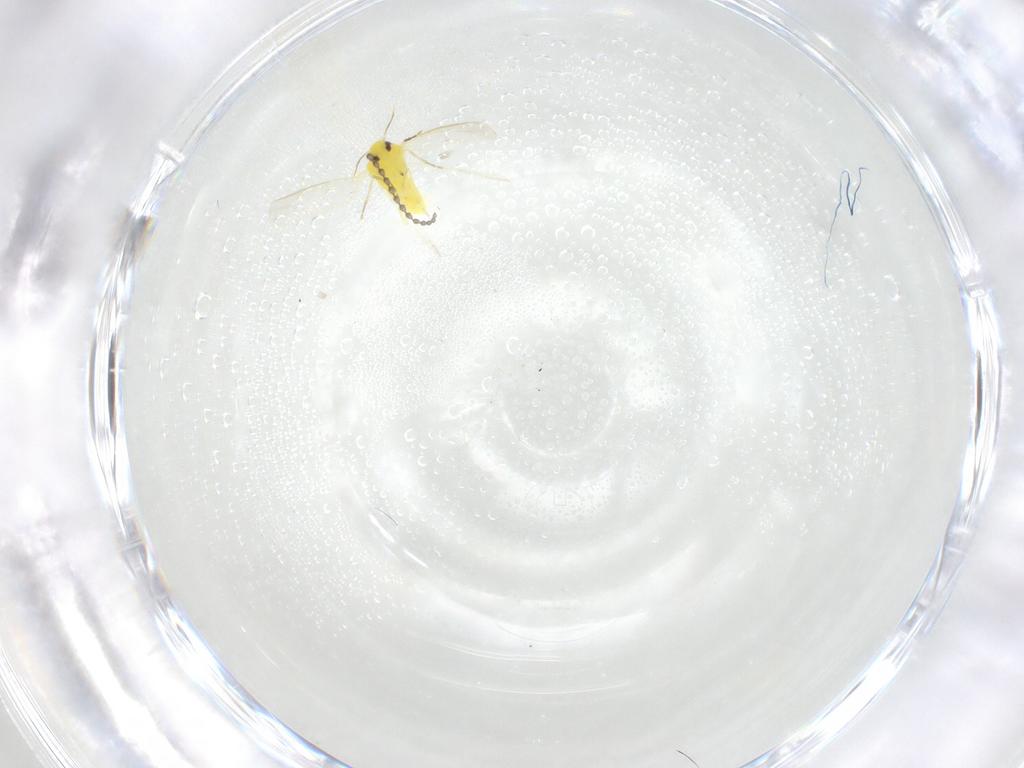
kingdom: Animalia
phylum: Arthropoda
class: Insecta
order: Hemiptera
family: Aleyrodidae
